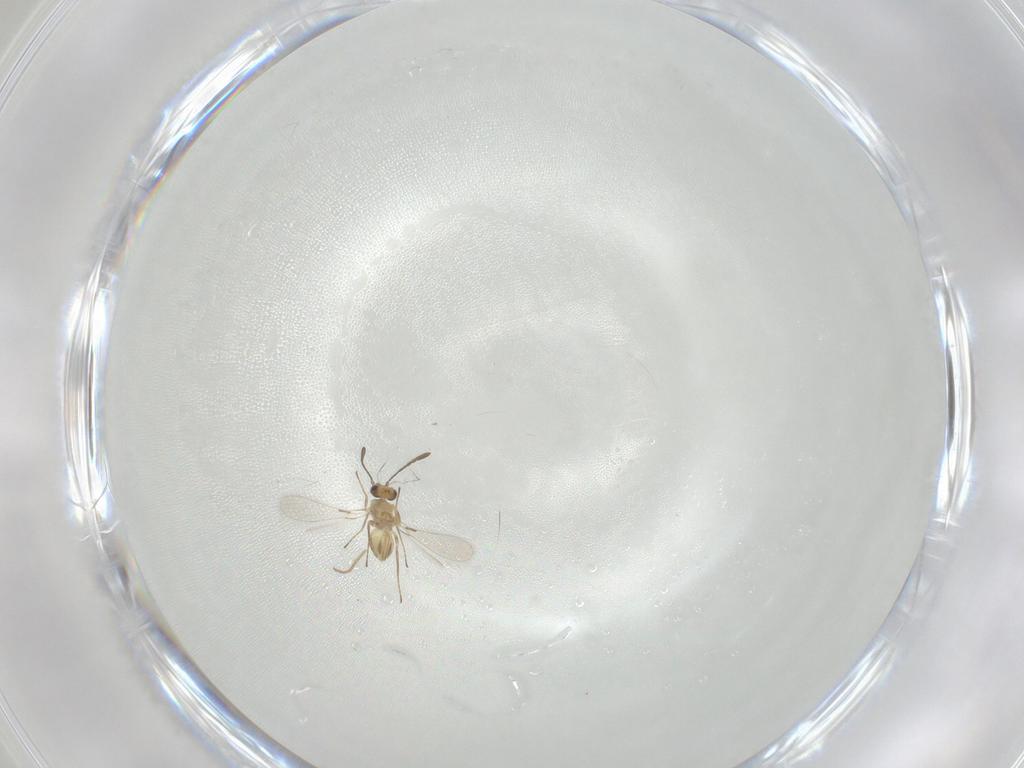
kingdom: Animalia
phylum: Arthropoda
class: Insecta
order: Hymenoptera
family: Mymaridae
